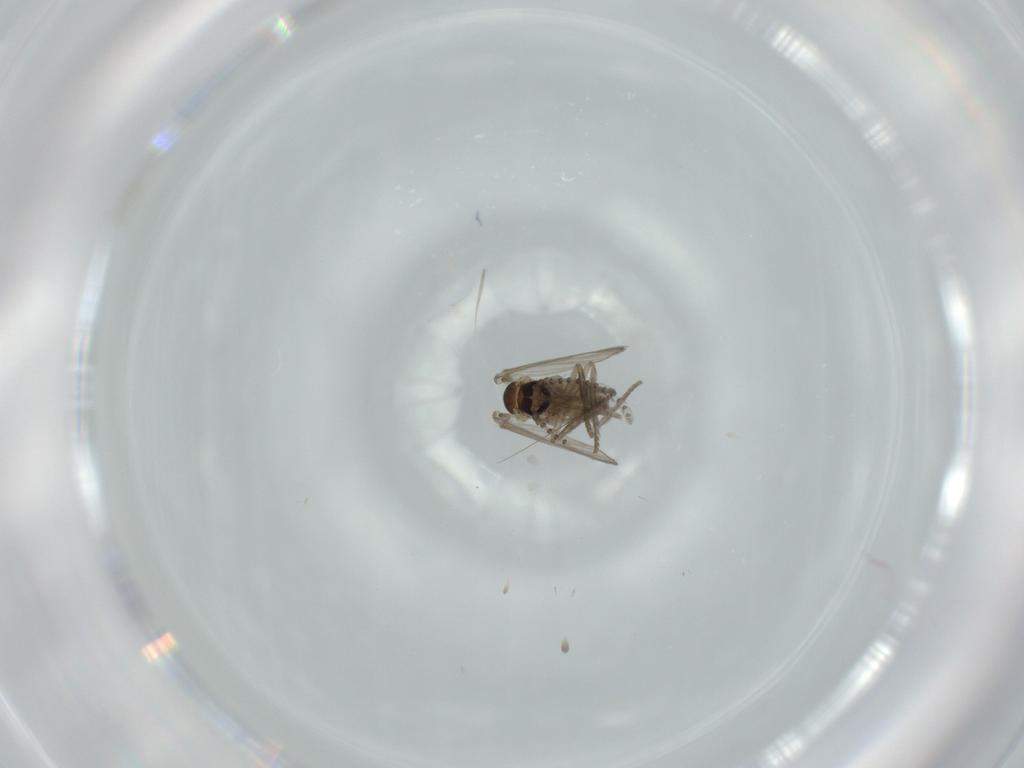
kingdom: Animalia
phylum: Arthropoda
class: Insecta
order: Diptera
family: Psychodidae
